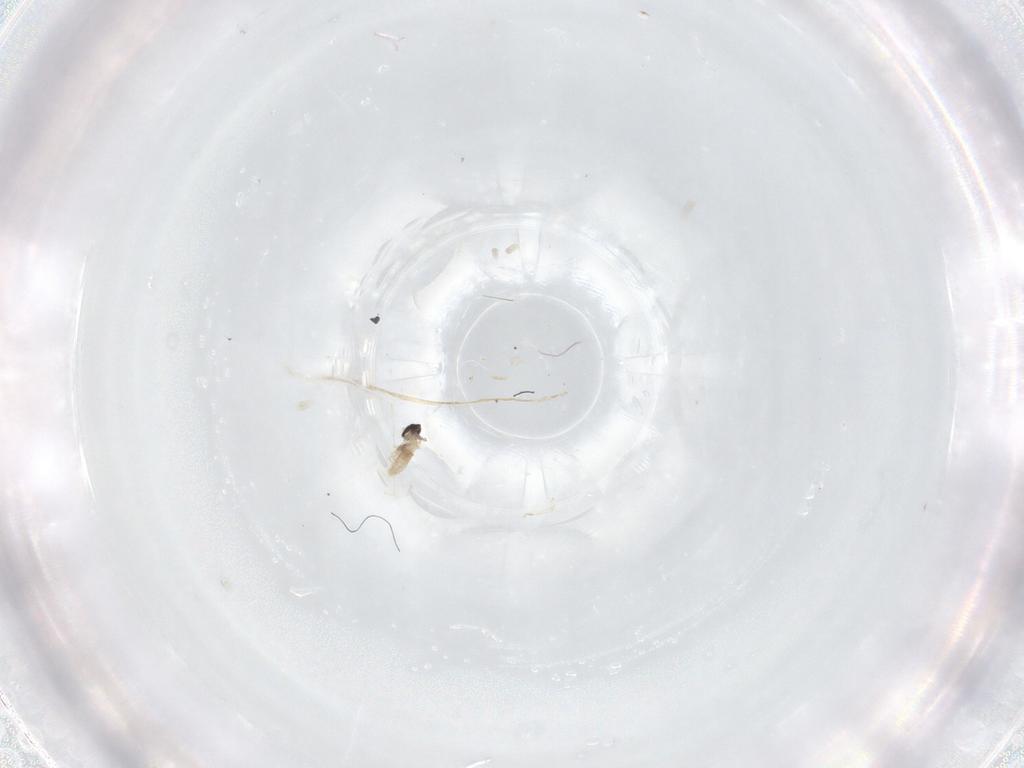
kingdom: Animalia
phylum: Arthropoda
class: Insecta
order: Diptera
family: Cecidomyiidae
